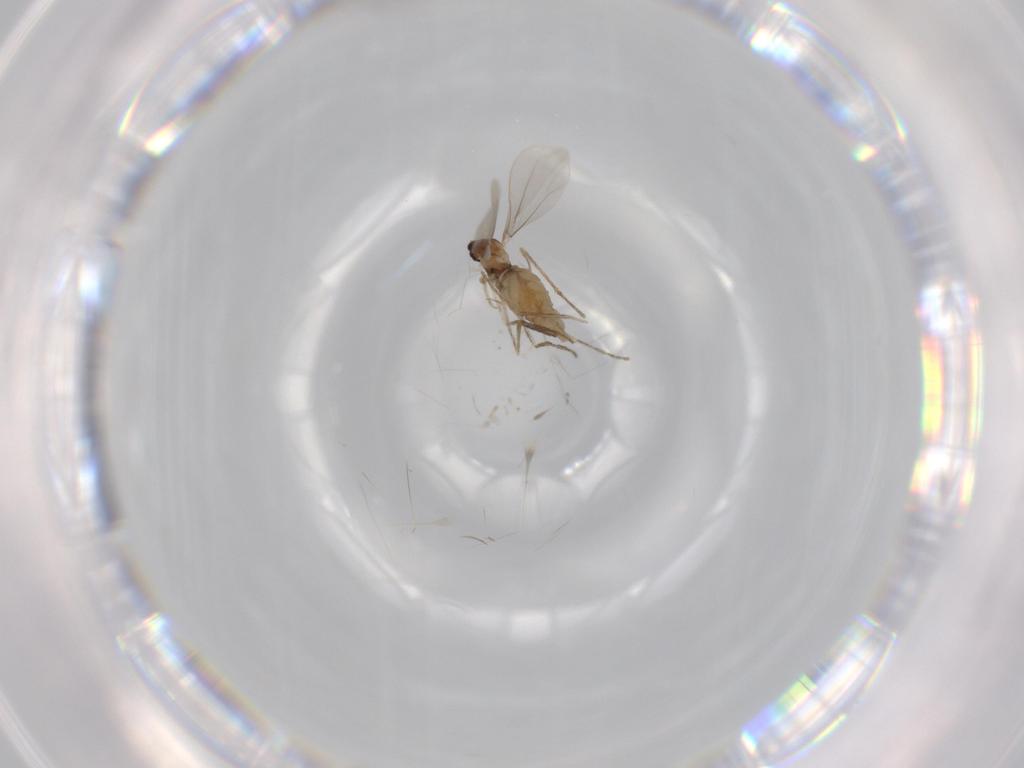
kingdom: Animalia
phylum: Arthropoda
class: Insecta
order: Diptera
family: Cecidomyiidae
